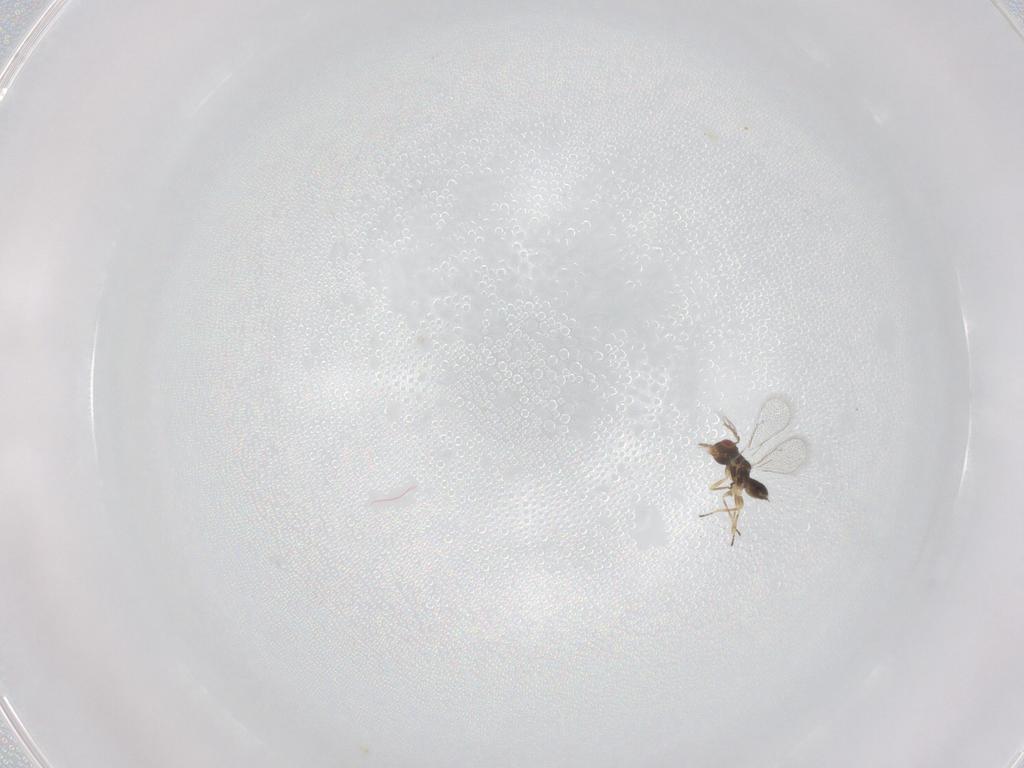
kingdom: Animalia
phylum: Arthropoda
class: Insecta
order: Hymenoptera
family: Eulophidae
